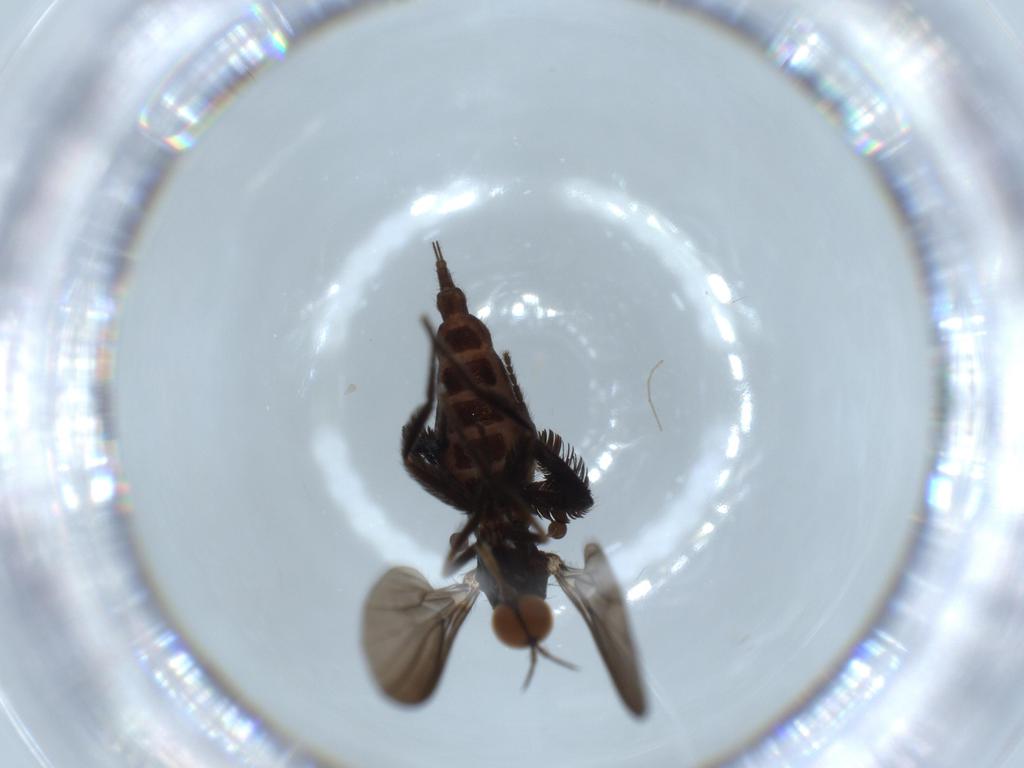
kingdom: Animalia
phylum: Arthropoda
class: Insecta
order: Diptera
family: Empididae
